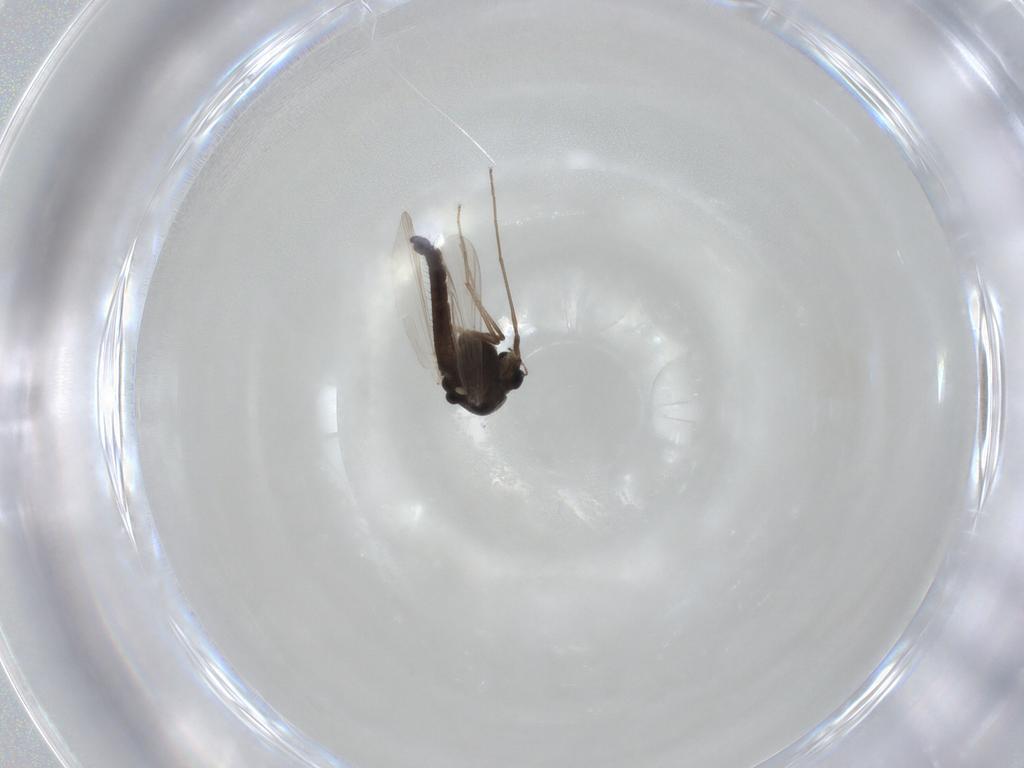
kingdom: Animalia
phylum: Arthropoda
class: Insecta
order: Diptera
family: Chironomidae
